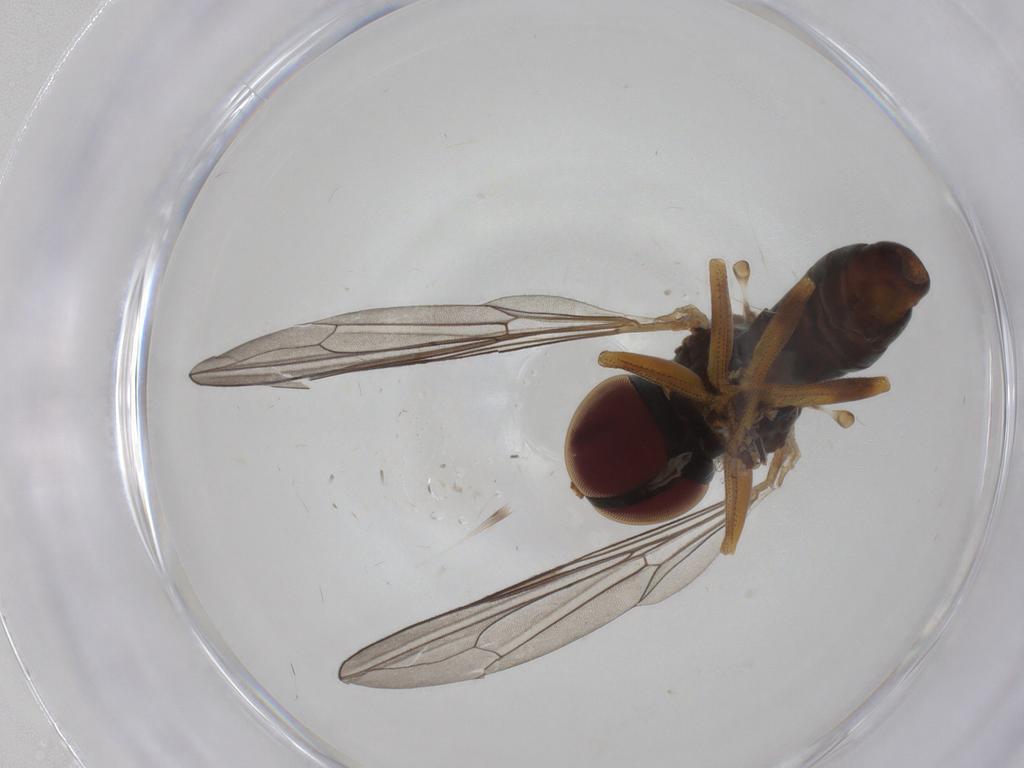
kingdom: Animalia
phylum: Arthropoda
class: Insecta
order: Diptera
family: Pipunculidae
